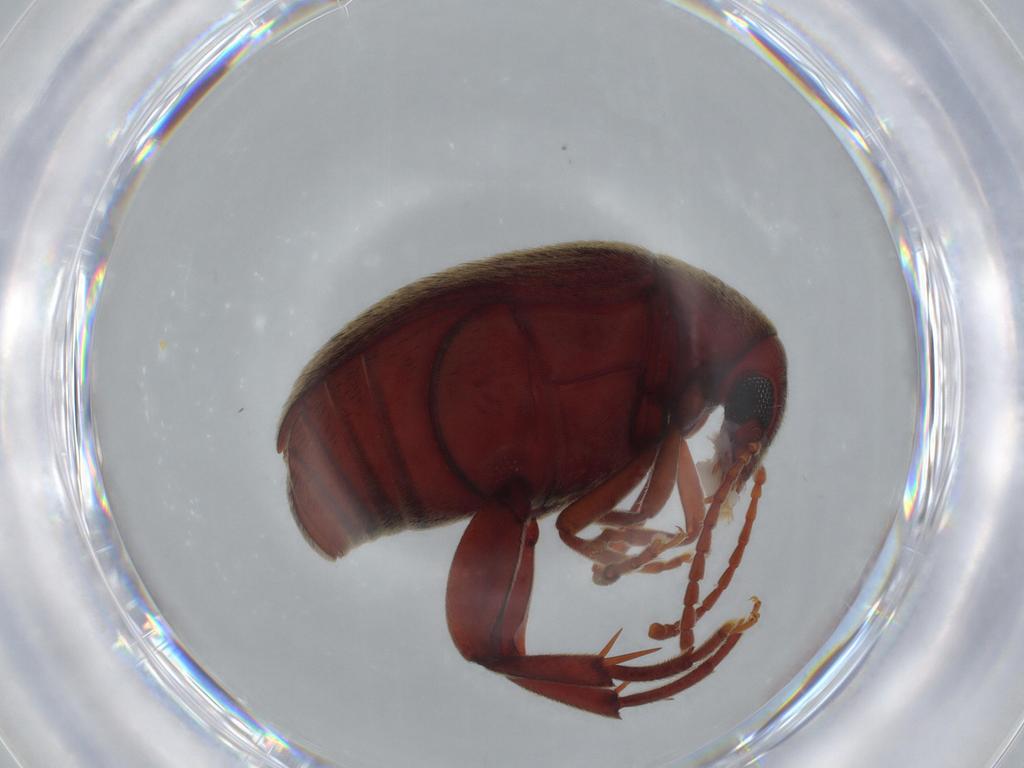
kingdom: Animalia
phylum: Arthropoda
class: Insecta
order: Coleoptera
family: Chrysomelidae
